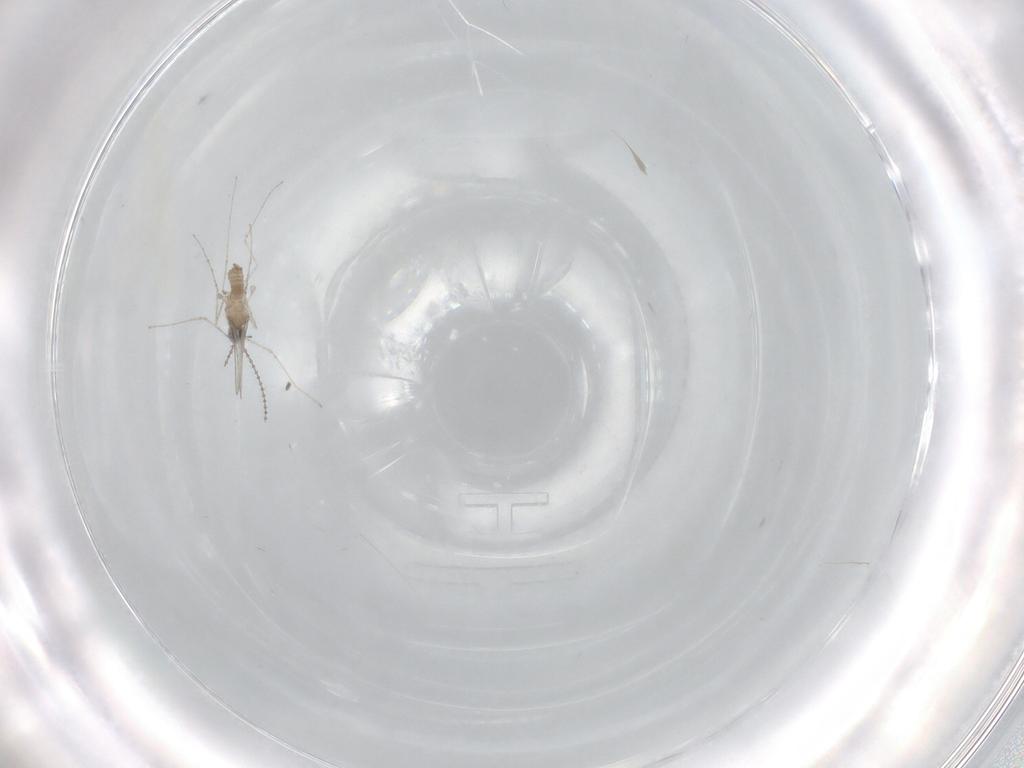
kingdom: Animalia
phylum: Arthropoda
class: Insecta
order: Diptera
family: Cecidomyiidae
